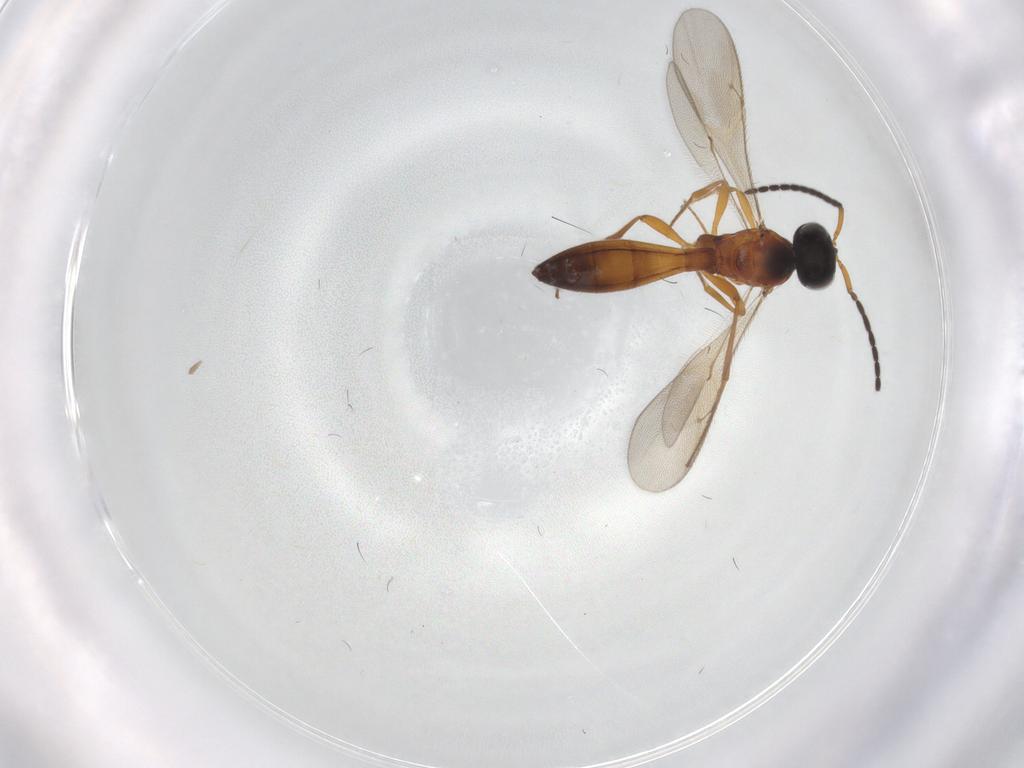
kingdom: Animalia
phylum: Arthropoda
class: Insecta
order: Hymenoptera
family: Scelionidae
